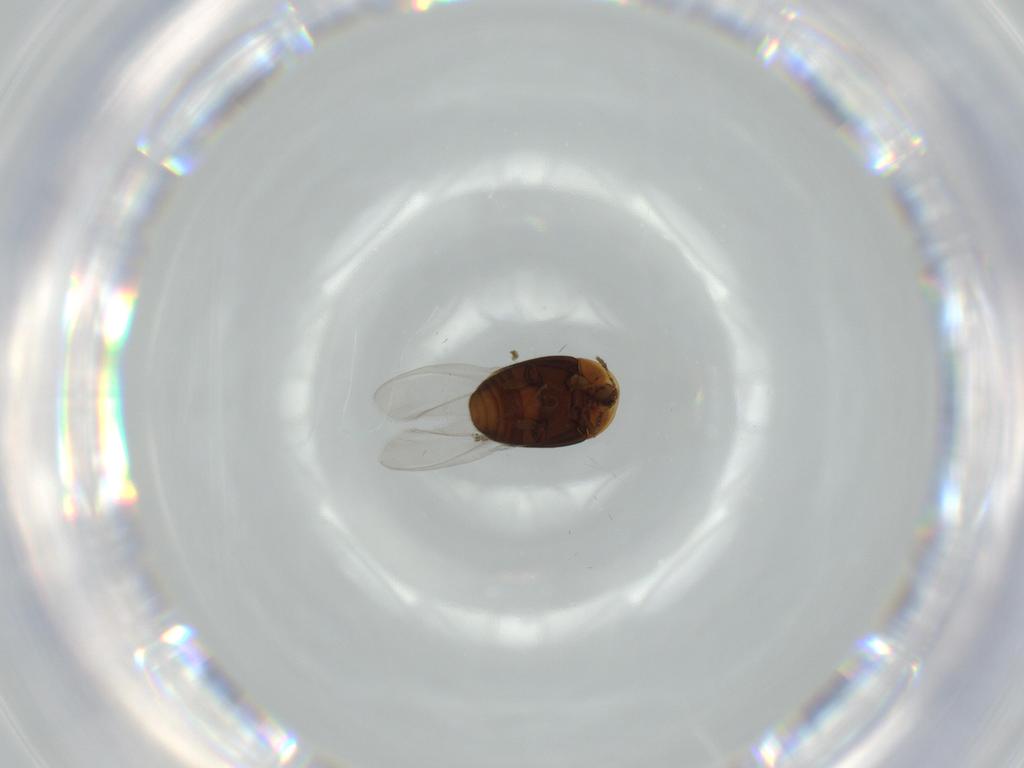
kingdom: Animalia
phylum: Arthropoda
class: Insecta
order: Coleoptera
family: Corylophidae
